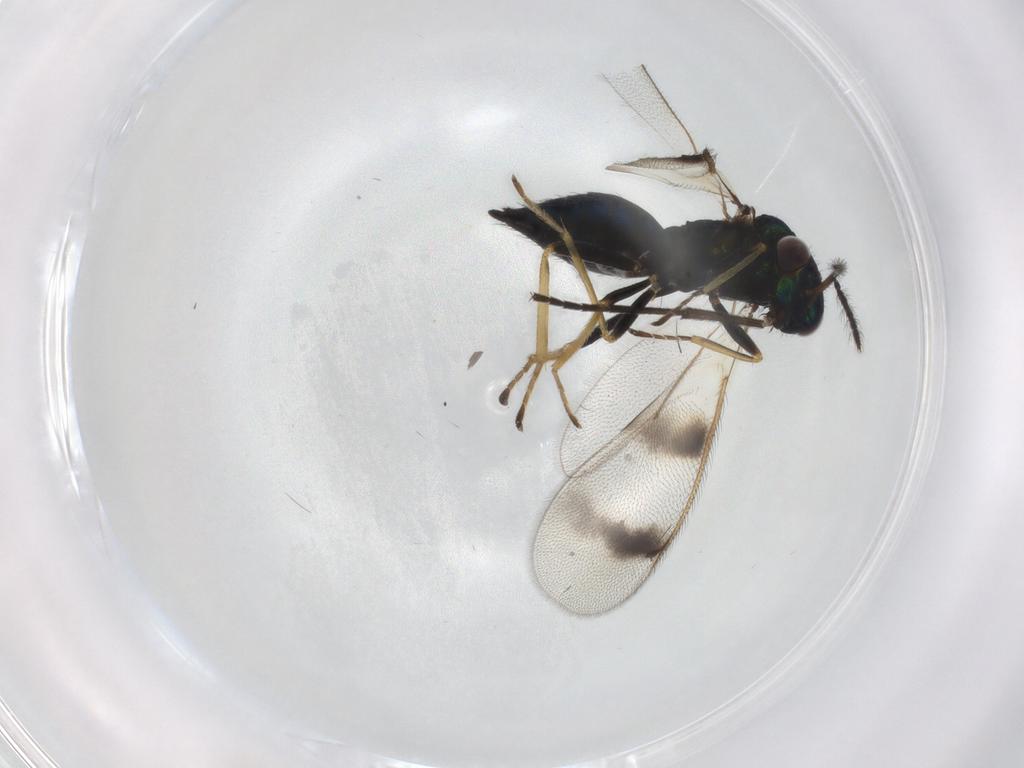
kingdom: Animalia
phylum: Arthropoda
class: Insecta
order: Hymenoptera
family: Eulophidae
